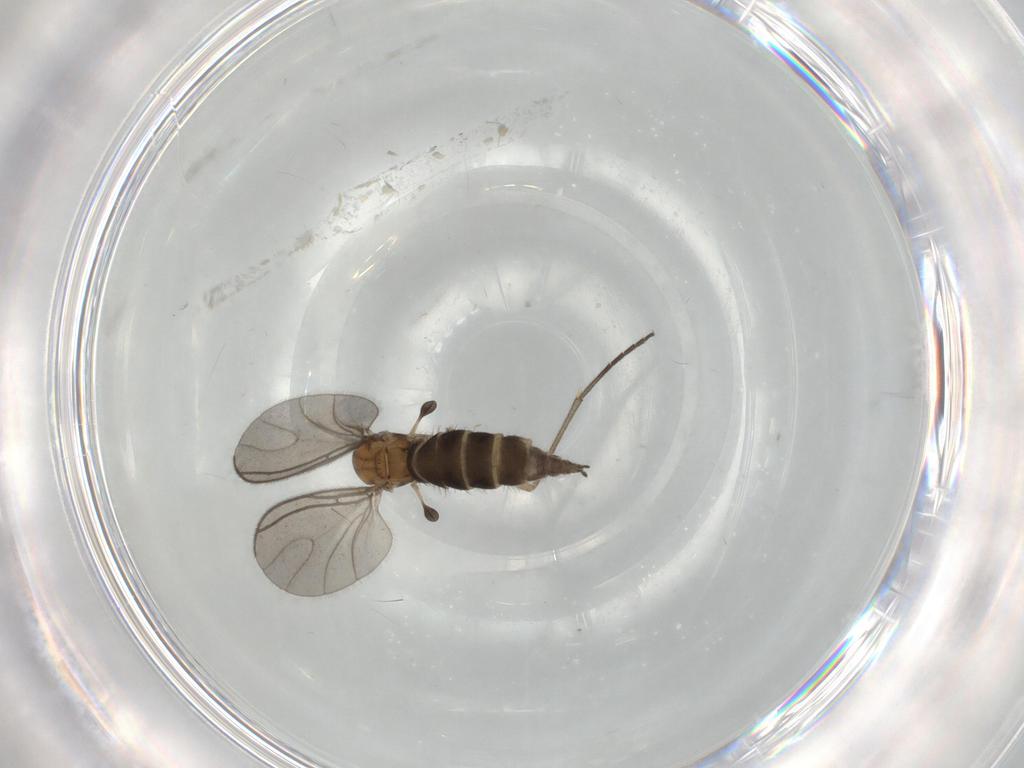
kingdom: Animalia
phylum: Arthropoda
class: Insecta
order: Diptera
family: Sciaridae
